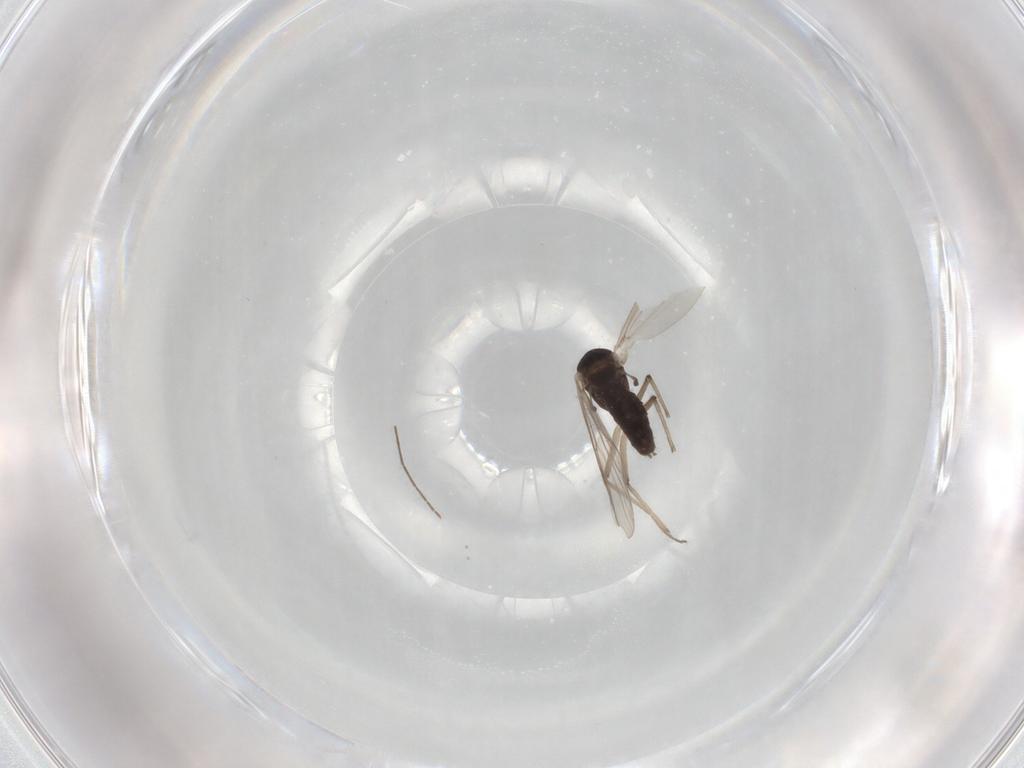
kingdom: Animalia
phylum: Arthropoda
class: Insecta
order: Diptera
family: Chironomidae
